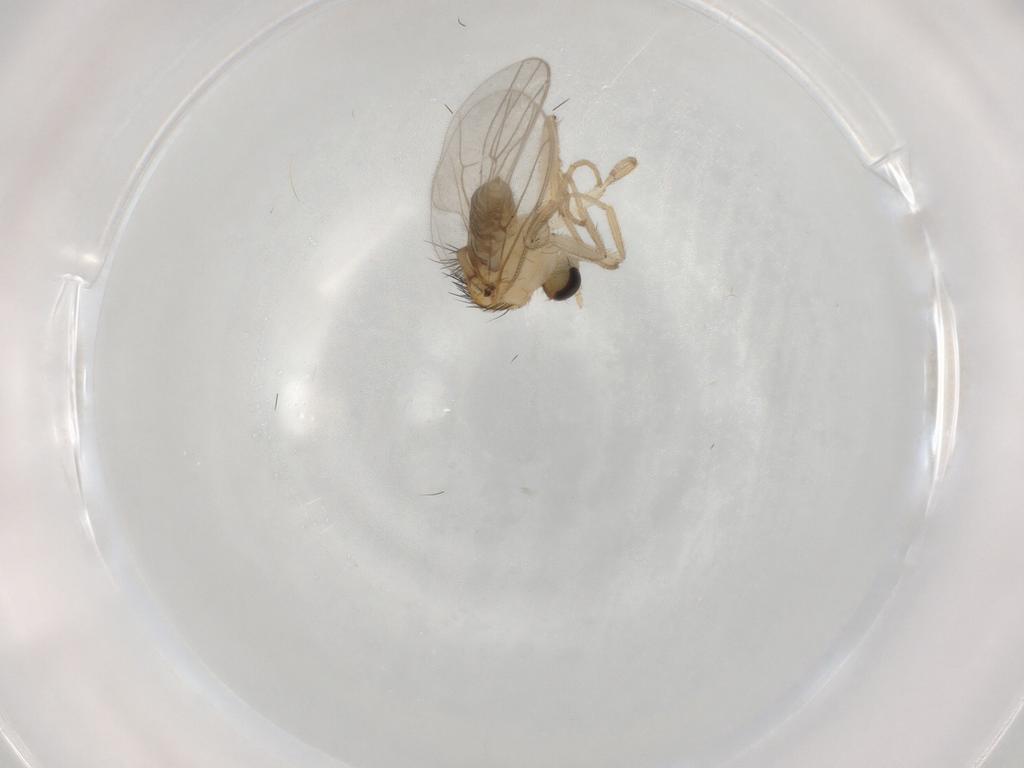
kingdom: Animalia
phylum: Arthropoda
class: Insecta
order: Diptera
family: Hybotidae
